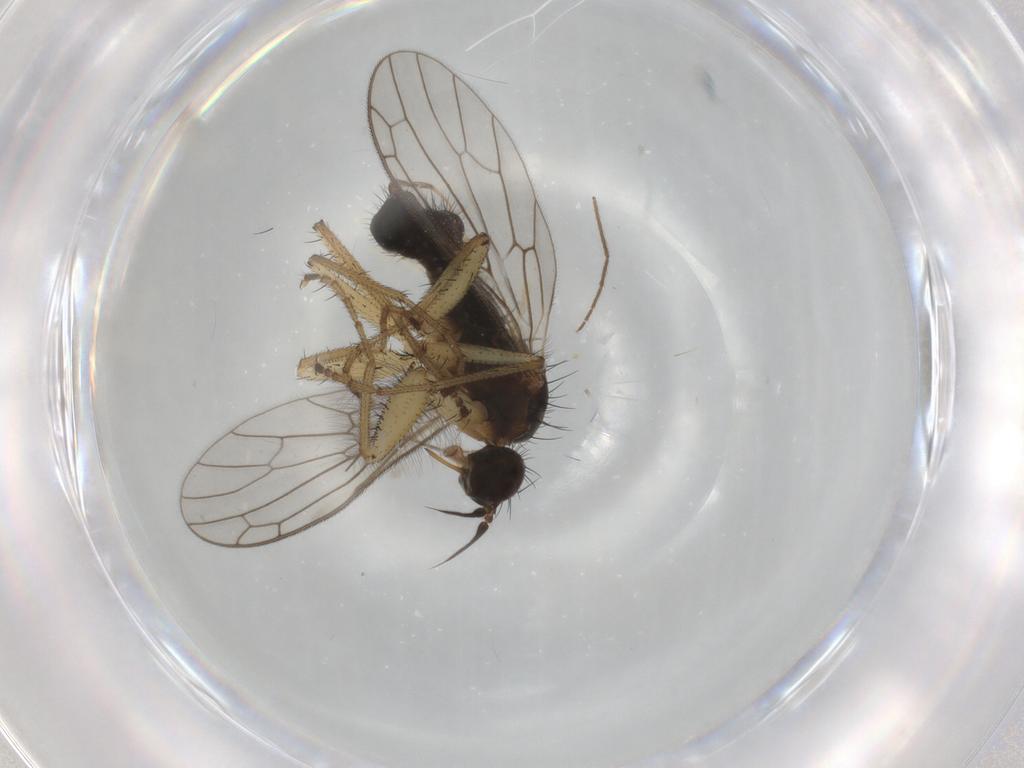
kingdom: Animalia
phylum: Arthropoda
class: Insecta
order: Diptera
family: Empididae
